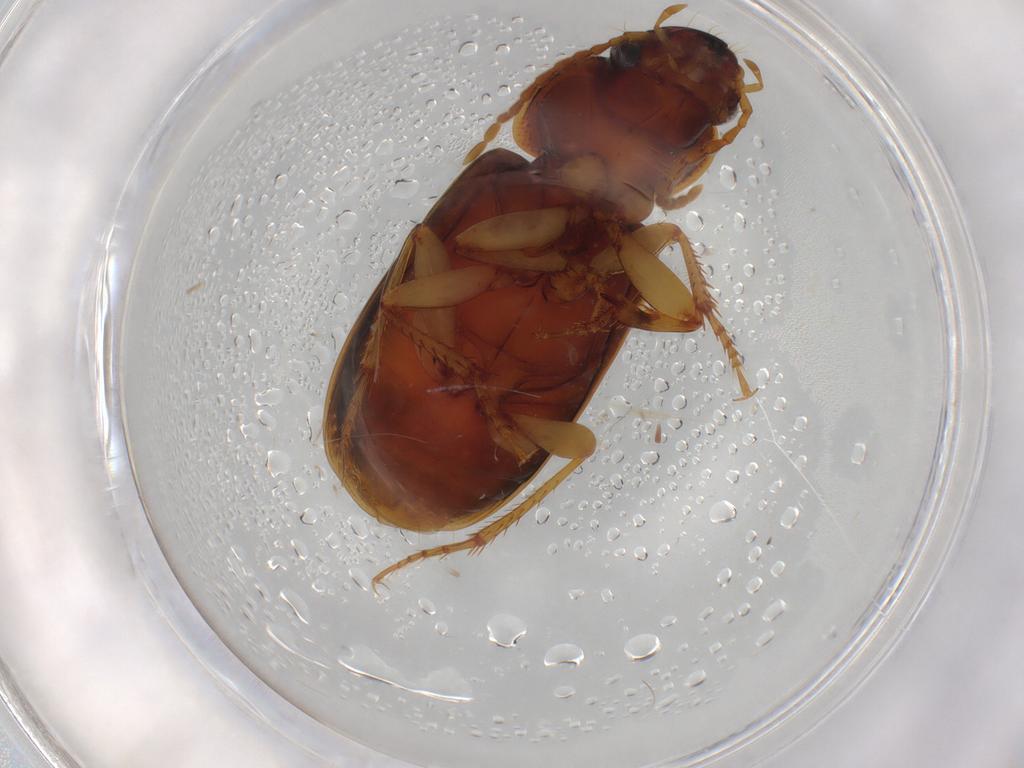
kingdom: Animalia
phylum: Arthropoda
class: Insecta
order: Coleoptera
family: Carabidae
